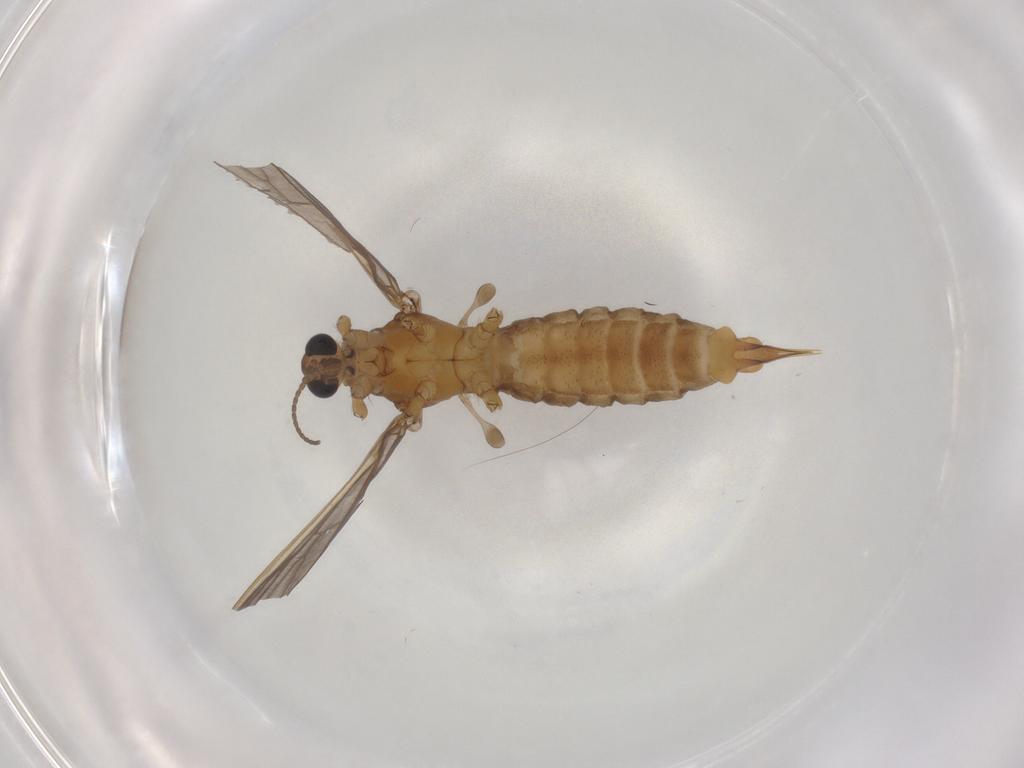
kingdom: Animalia
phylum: Arthropoda
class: Insecta
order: Diptera
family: Limoniidae
